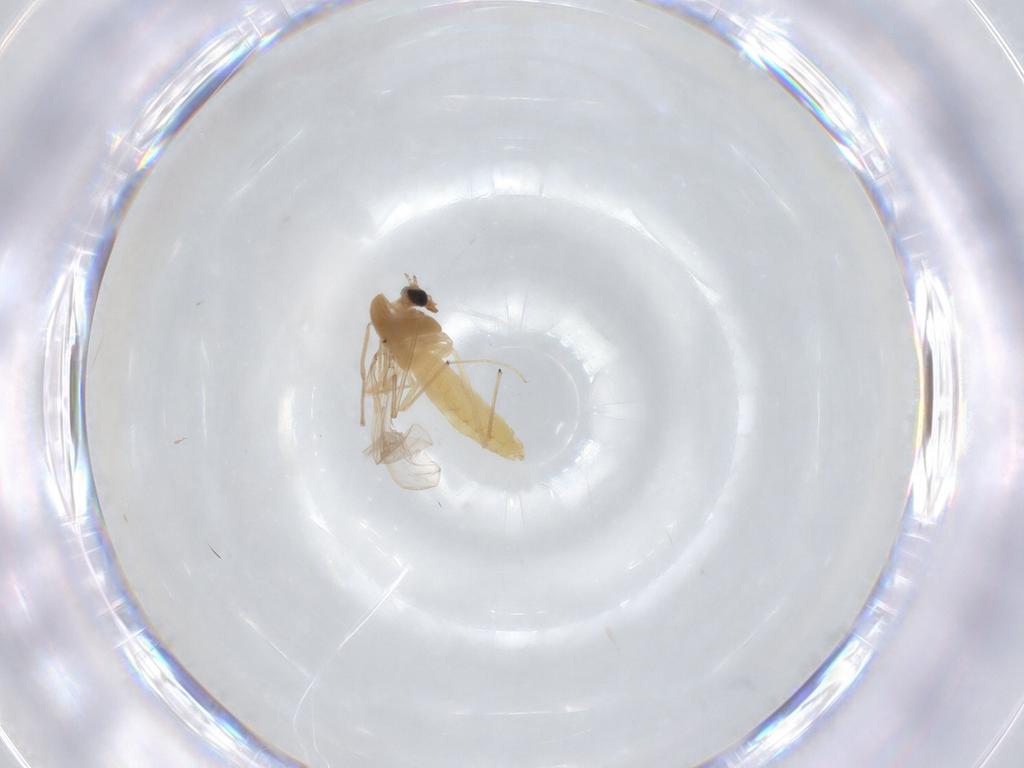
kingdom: Animalia
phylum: Arthropoda
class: Insecta
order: Diptera
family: Chironomidae
